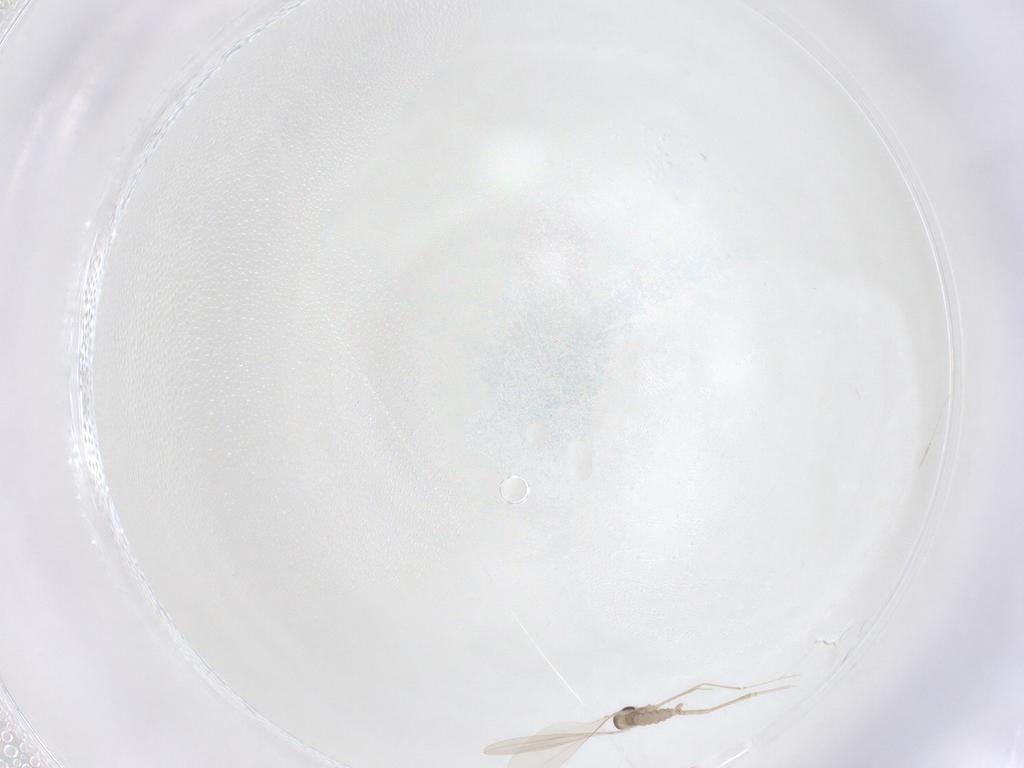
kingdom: Animalia
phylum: Arthropoda
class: Insecta
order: Diptera
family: Cecidomyiidae
